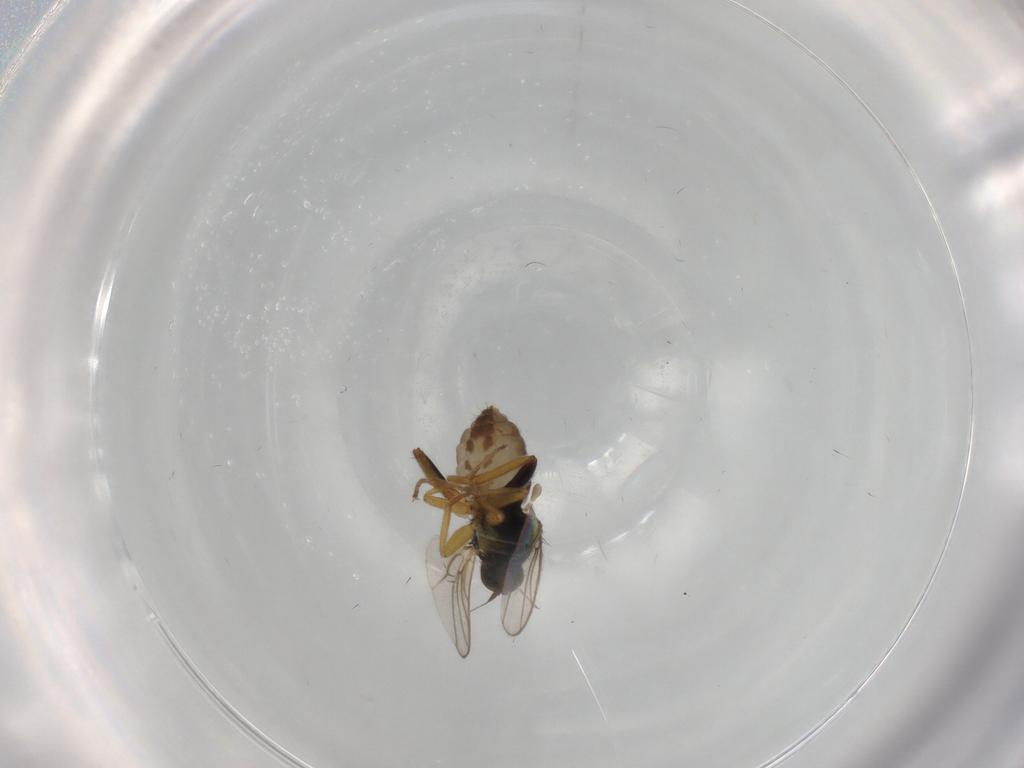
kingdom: Animalia
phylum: Arthropoda
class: Insecta
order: Diptera
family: Hybotidae
